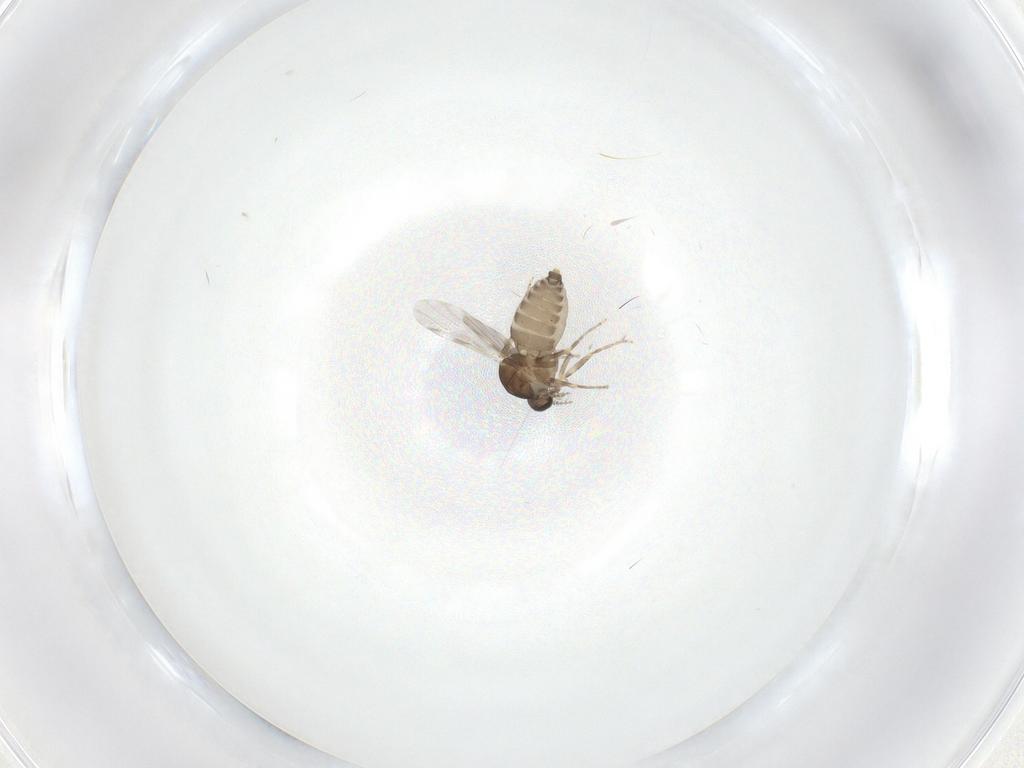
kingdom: Animalia
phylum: Arthropoda
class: Insecta
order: Diptera
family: Ceratopogonidae
